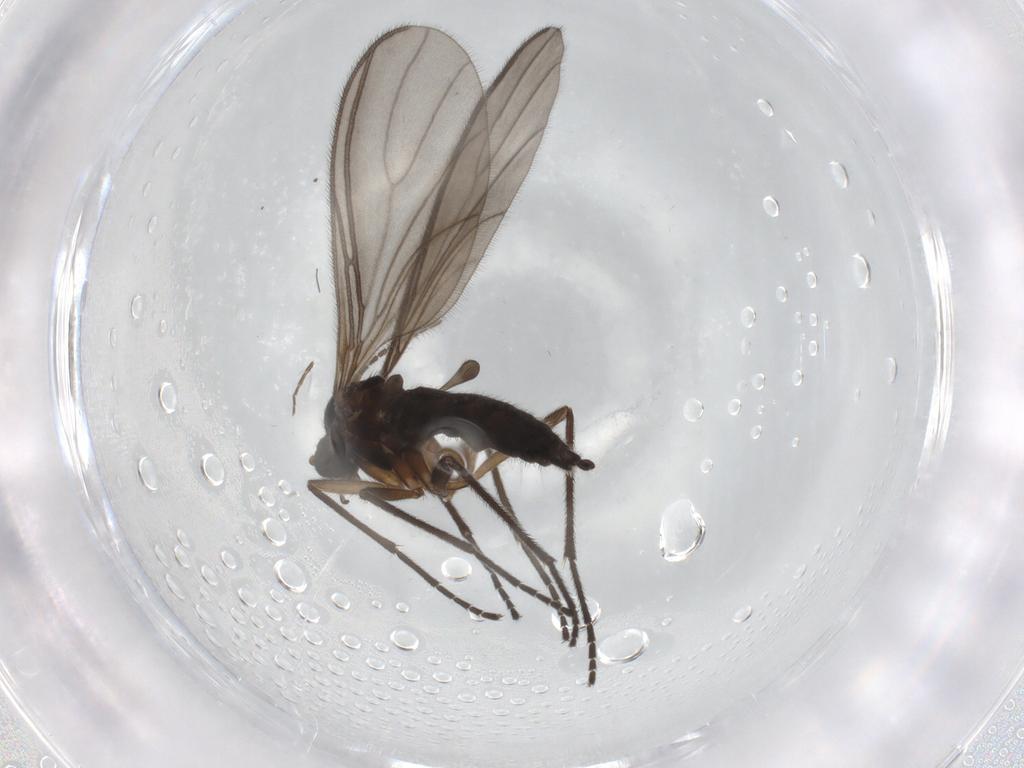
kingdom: Animalia
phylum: Arthropoda
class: Insecta
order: Diptera
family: Sciaridae
